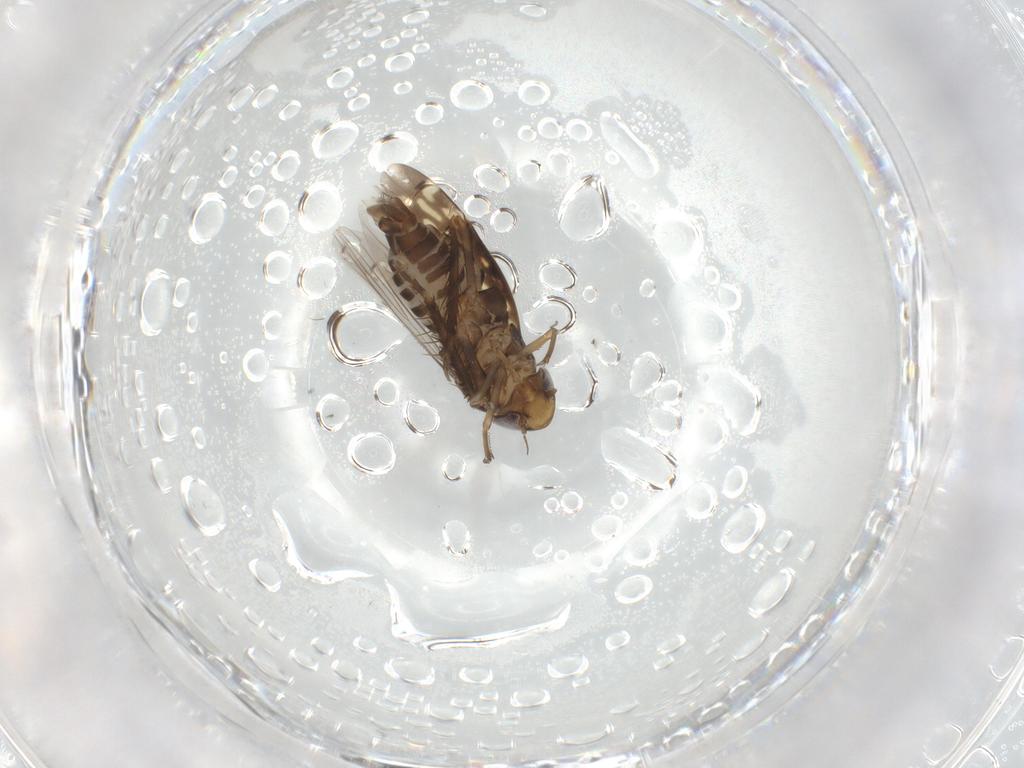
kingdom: Animalia
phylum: Arthropoda
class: Insecta
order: Hemiptera
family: Cicadellidae
